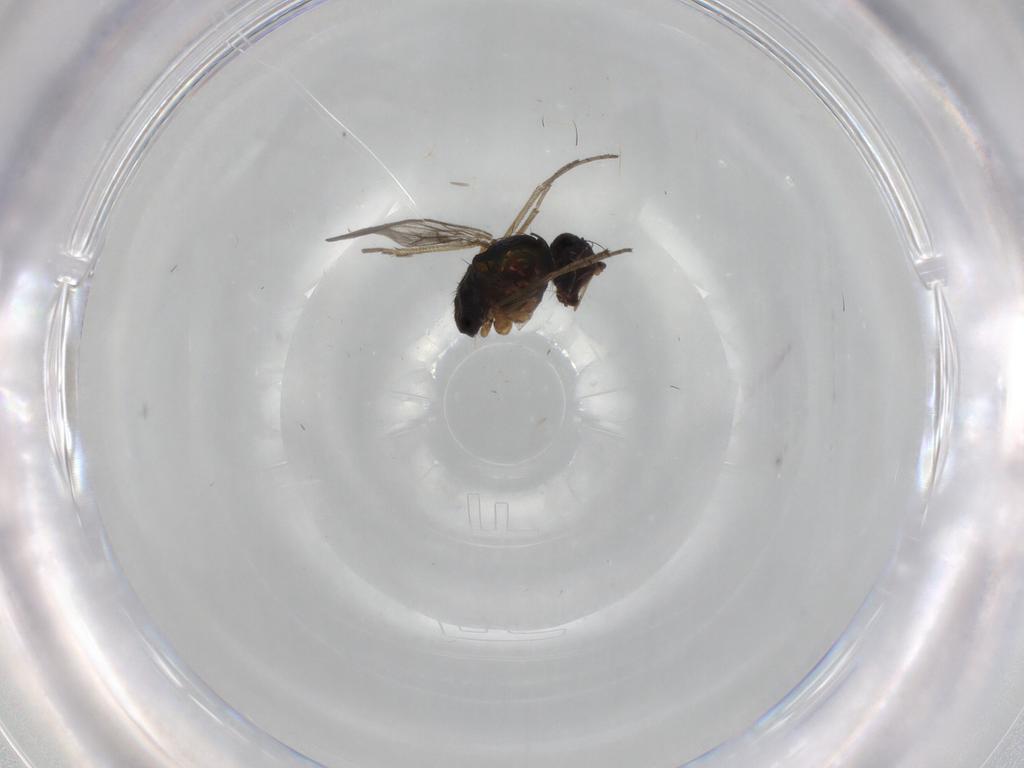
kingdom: Animalia
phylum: Arthropoda
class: Insecta
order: Diptera
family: Dolichopodidae
